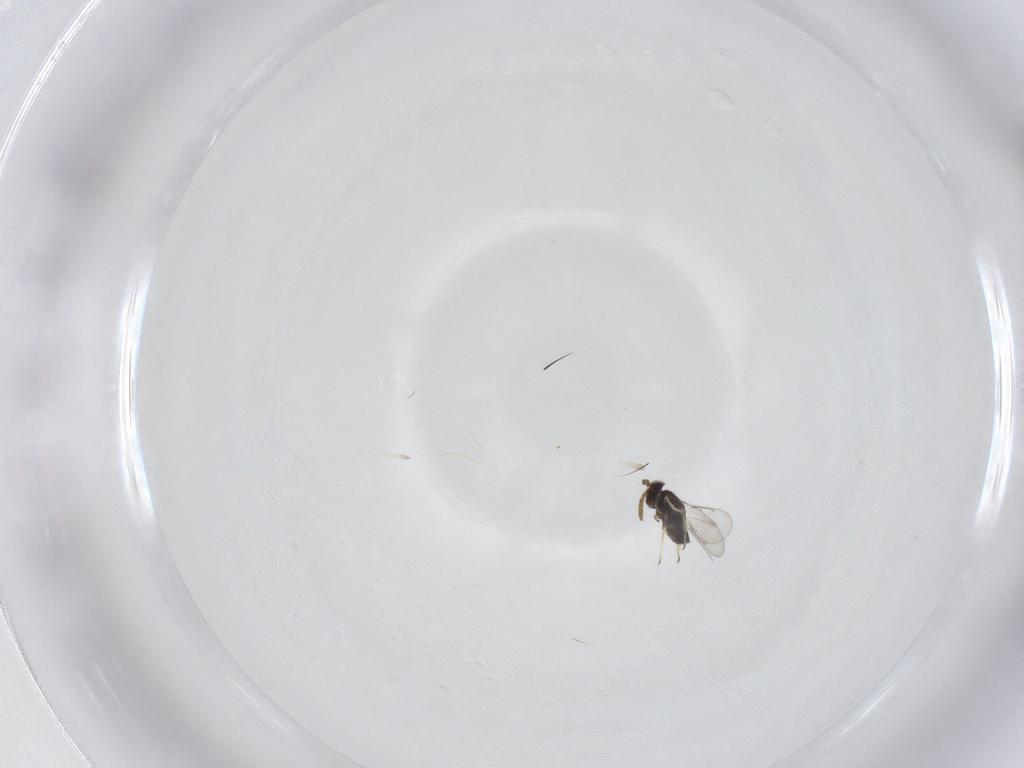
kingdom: Animalia
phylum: Arthropoda
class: Insecta
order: Hymenoptera
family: Aphelinidae
